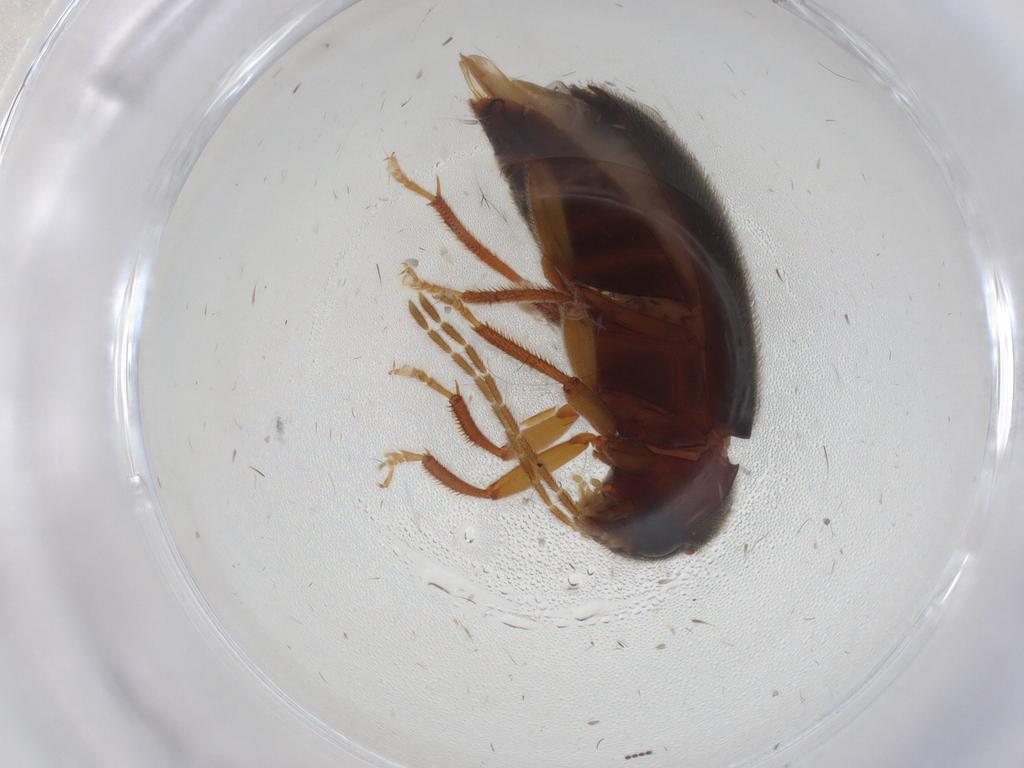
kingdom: Animalia
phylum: Arthropoda
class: Insecta
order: Coleoptera
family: Ptilodactylidae
